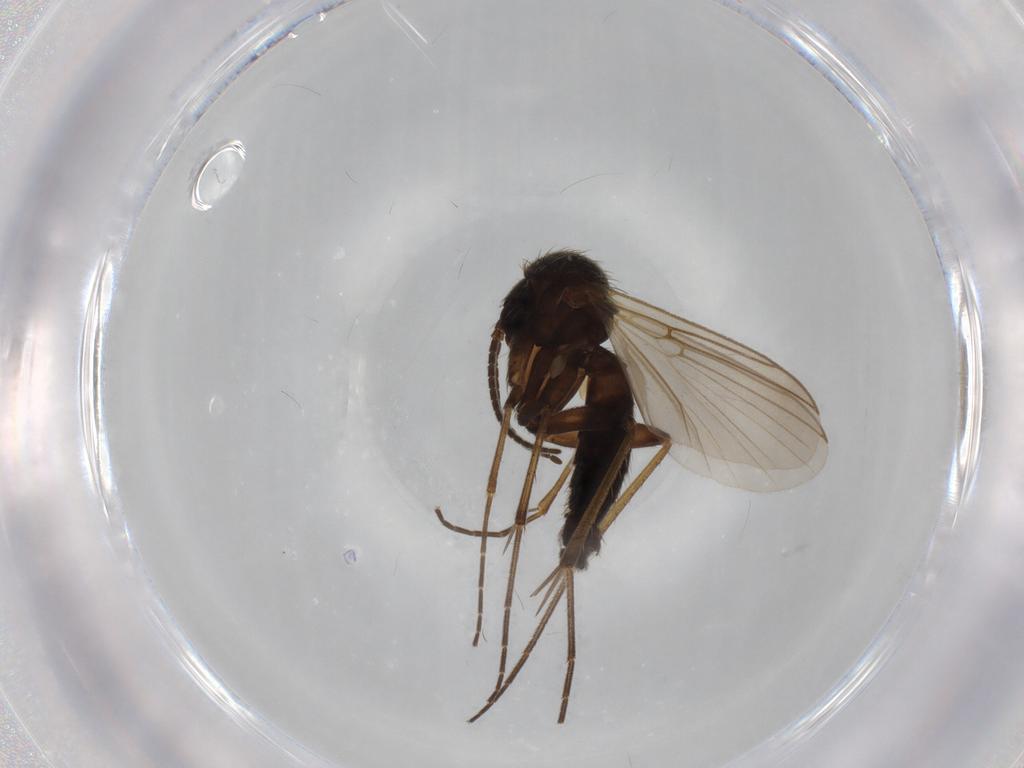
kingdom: Animalia
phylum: Arthropoda
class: Insecta
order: Diptera
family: Mycetophilidae
